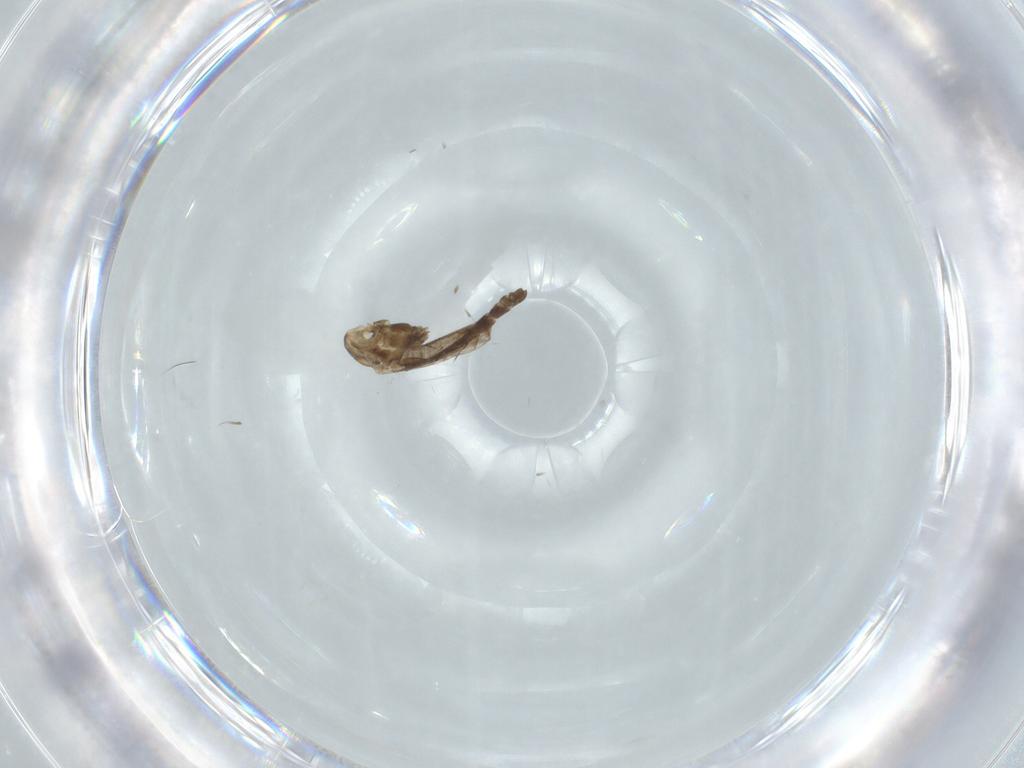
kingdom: Animalia
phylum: Arthropoda
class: Insecta
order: Diptera
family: Chironomidae
